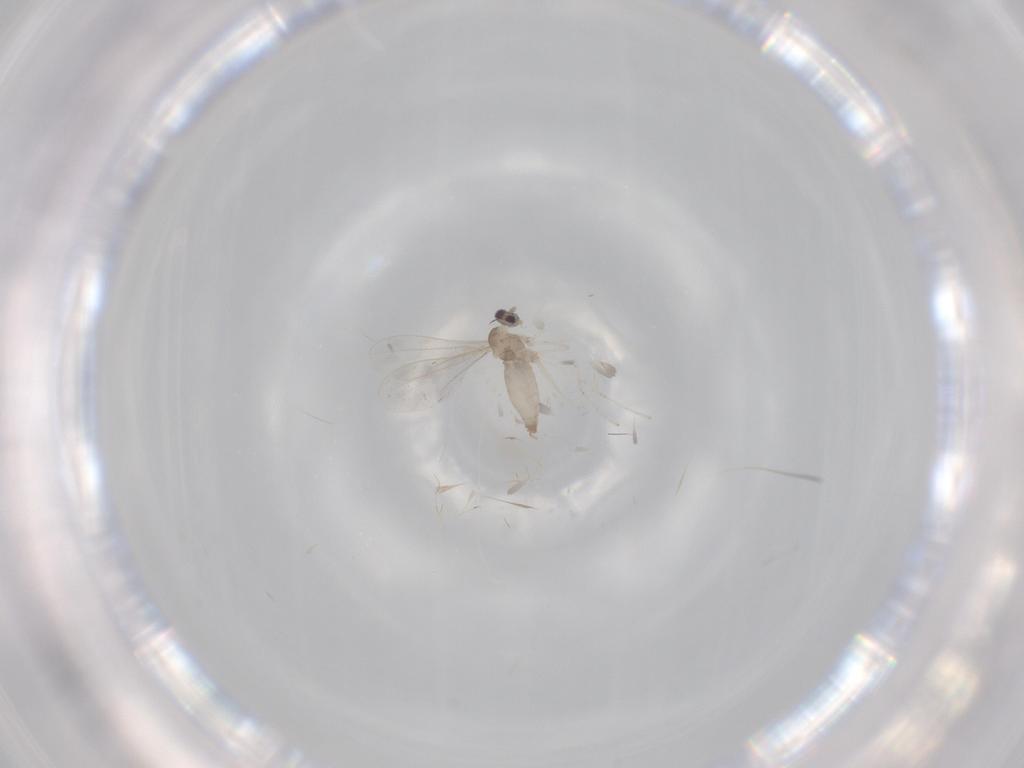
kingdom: Animalia
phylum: Arthropoda
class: Insecta
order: Diptera
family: Cecidomyiidae
